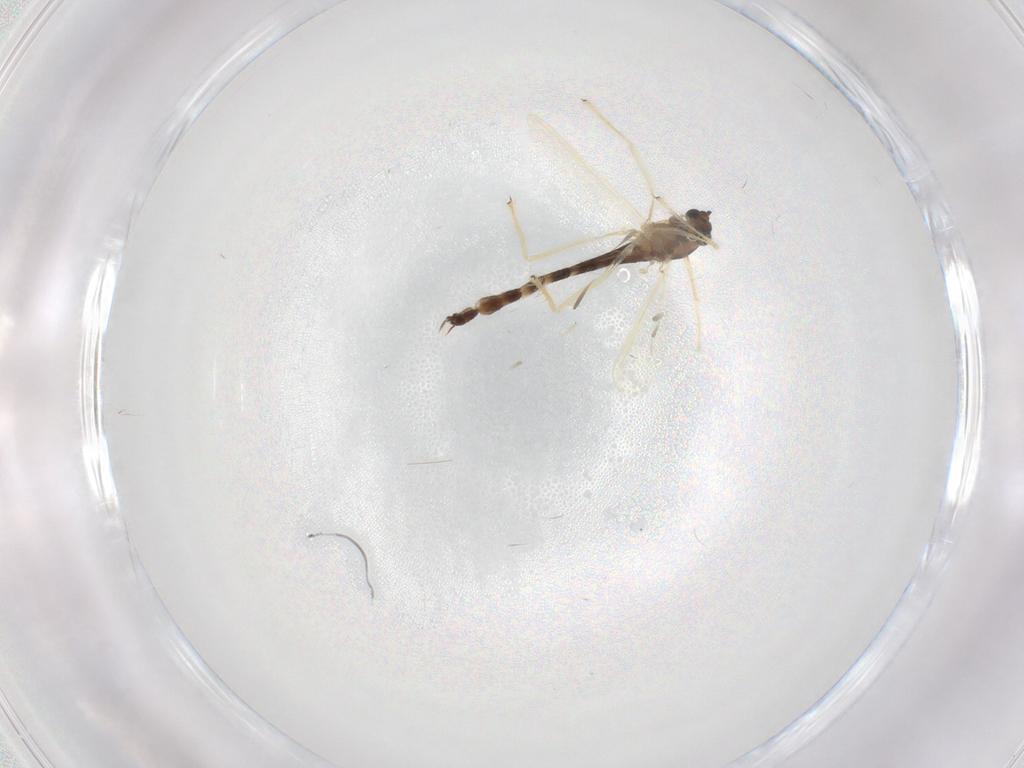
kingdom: Animalia
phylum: Arthropoda
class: Insecta
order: Diptera
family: Chironomidae
